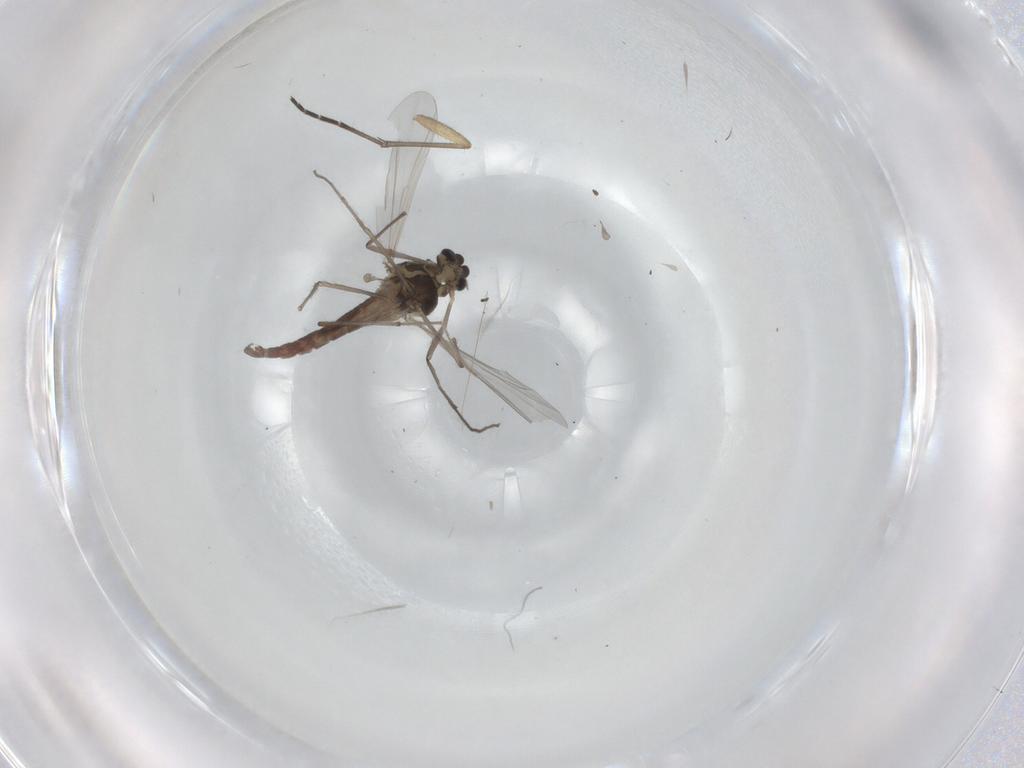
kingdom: Animalia
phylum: Arthropoda
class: Insecta
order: Diptera
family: Chironomidae
